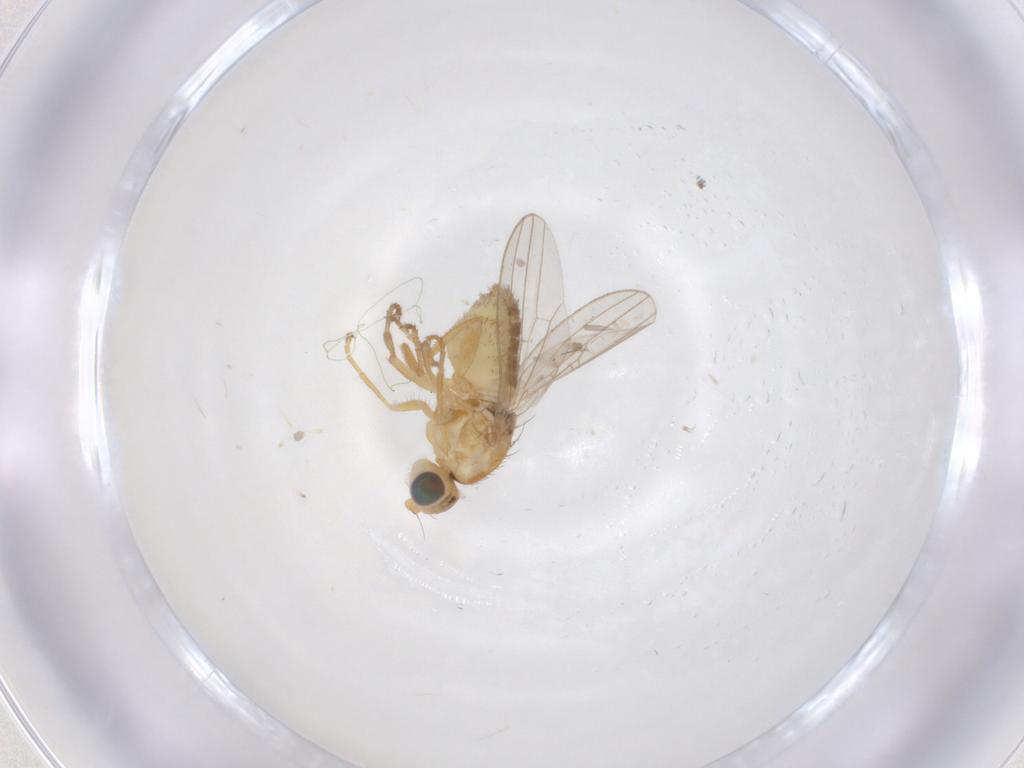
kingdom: Animalia
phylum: Arthropoda
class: Insecta
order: Diptera
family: Chyromyidae
